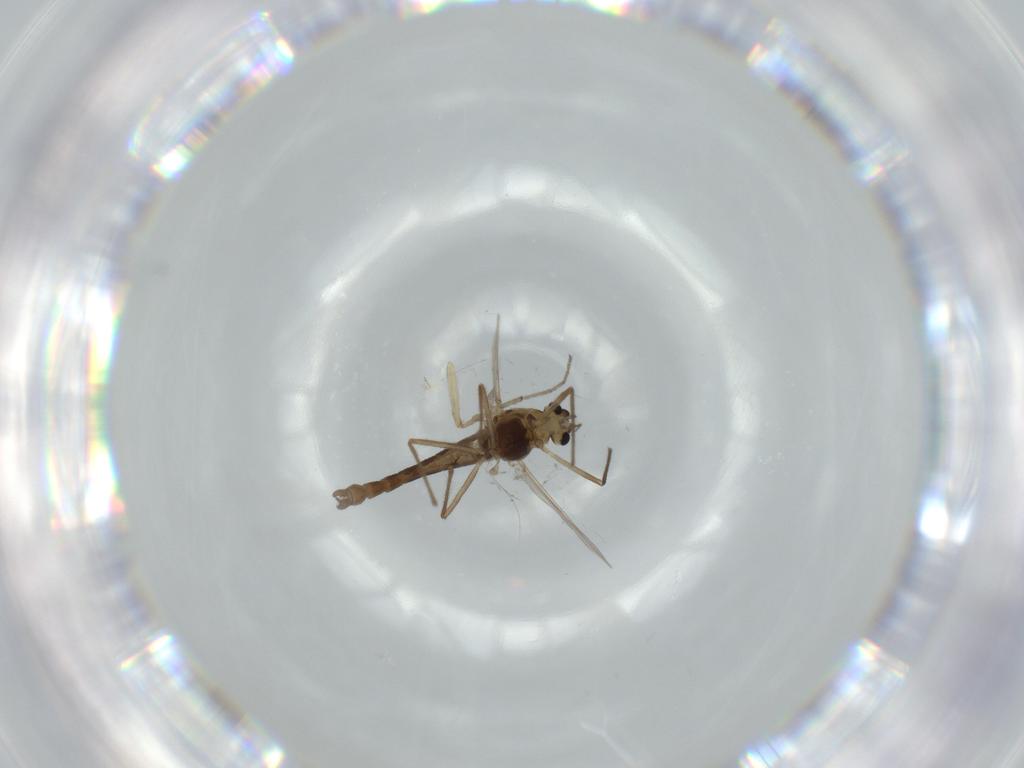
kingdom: Animalia
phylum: Arthropoda
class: Insecta
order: Diptera
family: Chironomidae
